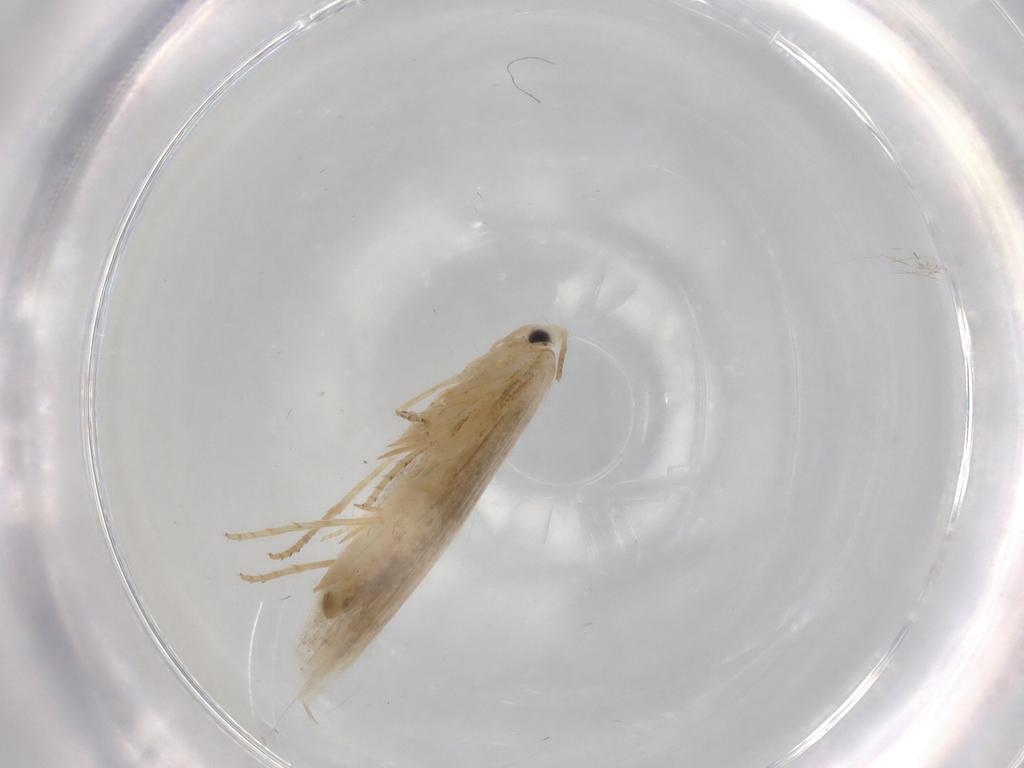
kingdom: Animalia
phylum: Arthropoda
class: Insecta
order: Lepidoptera
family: Bucculatricidae
